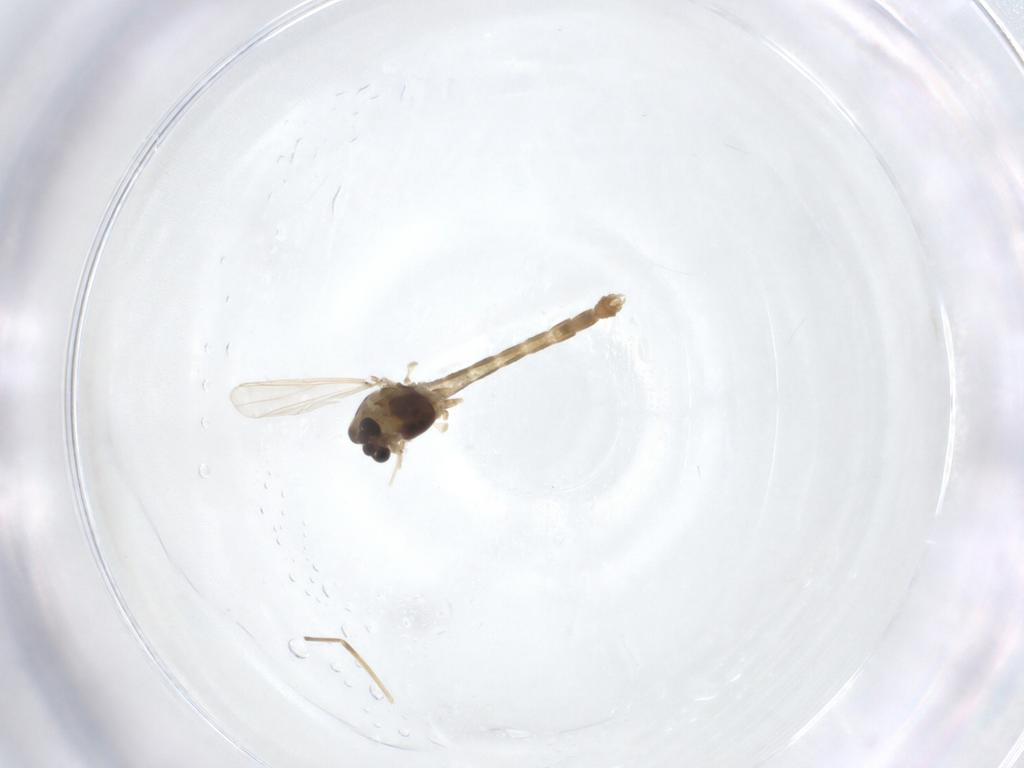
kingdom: Animalia
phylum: Arthropoda
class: Insecta
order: Diptera
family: Chironomidae
